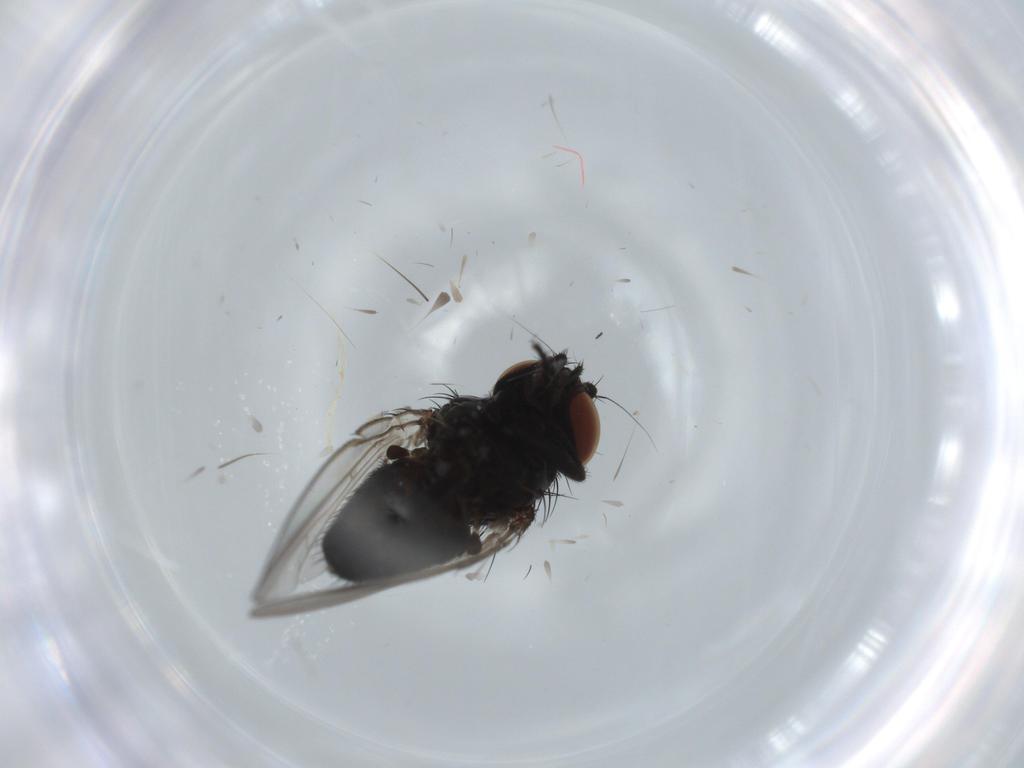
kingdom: Animalia
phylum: Arthropoda
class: Insecta
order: Diptera
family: Milichiidae
